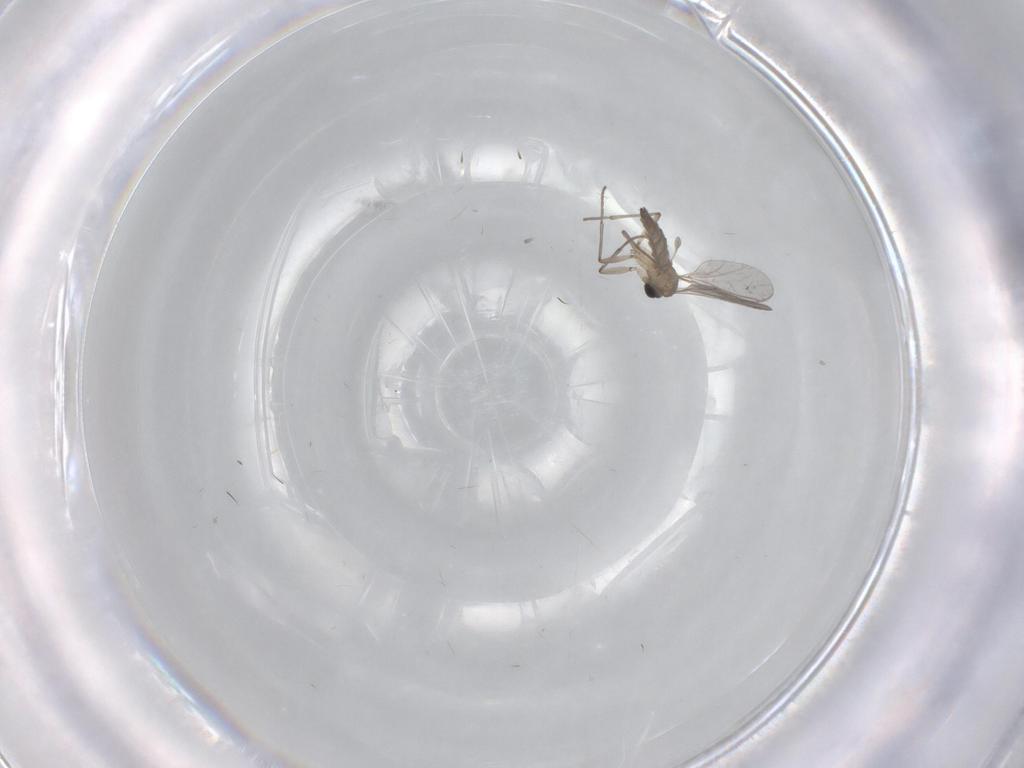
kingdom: Animalia
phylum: Arthropoda
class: Insecta
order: Diptera
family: Sciaridae
